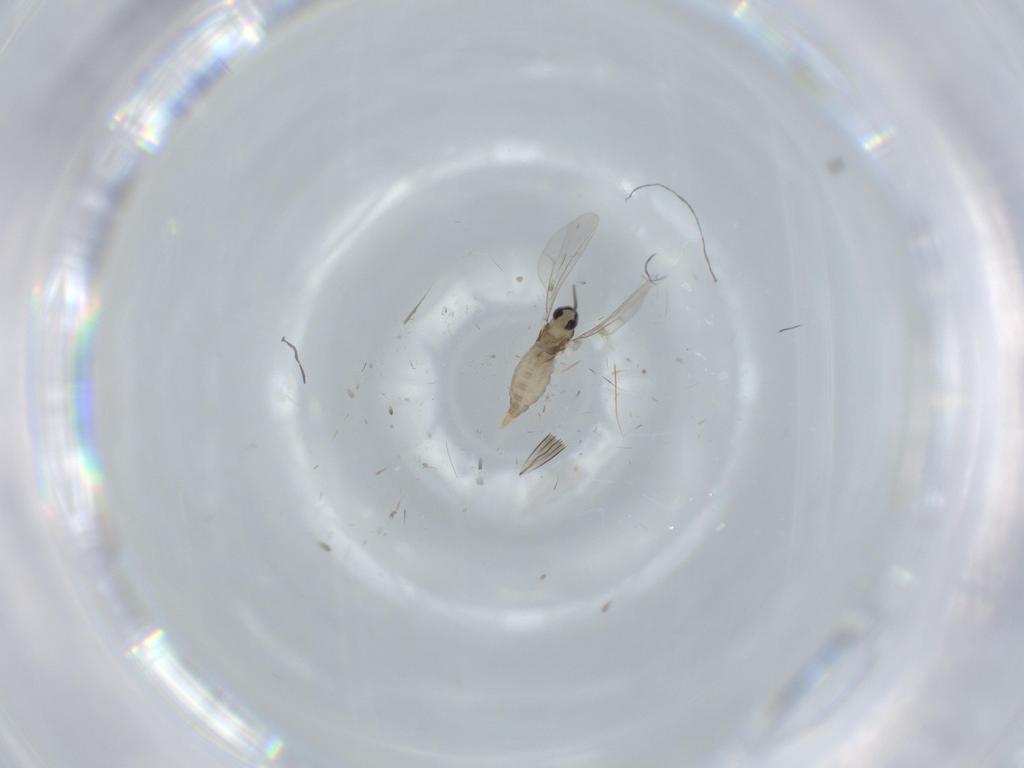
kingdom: Animalia
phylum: Arthropoda
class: Insecta
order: Diptera
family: Cecidomyiidae
